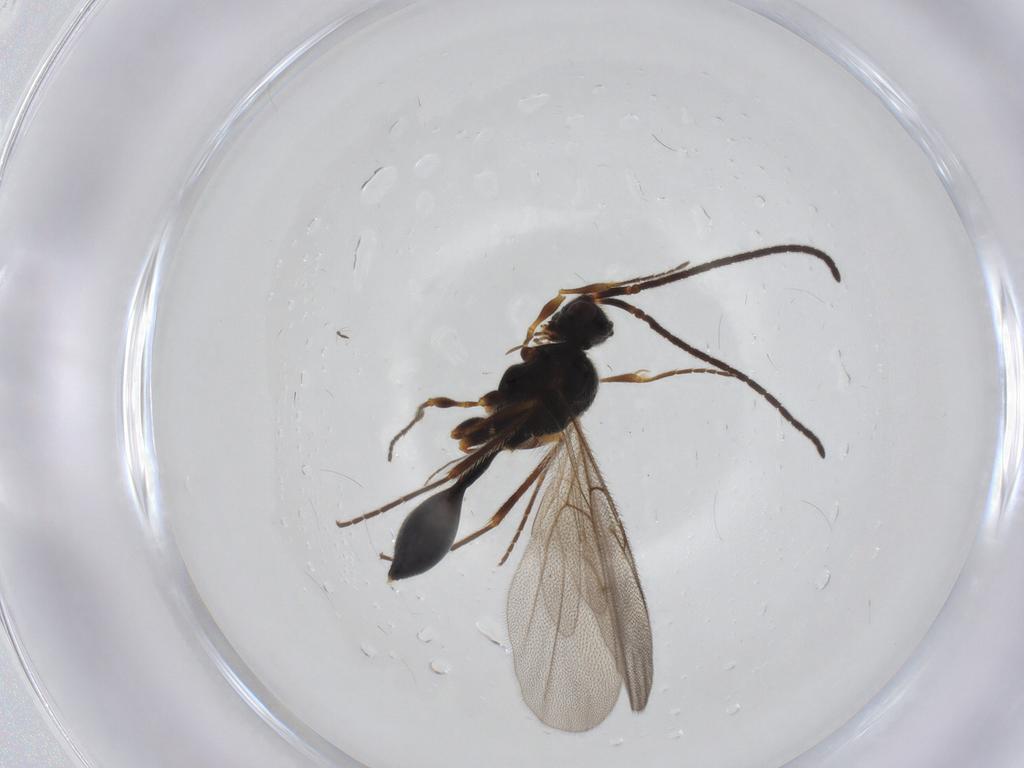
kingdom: Animalia
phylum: Arthropoda
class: Insecta
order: Hymenoptera
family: Diapriidae
